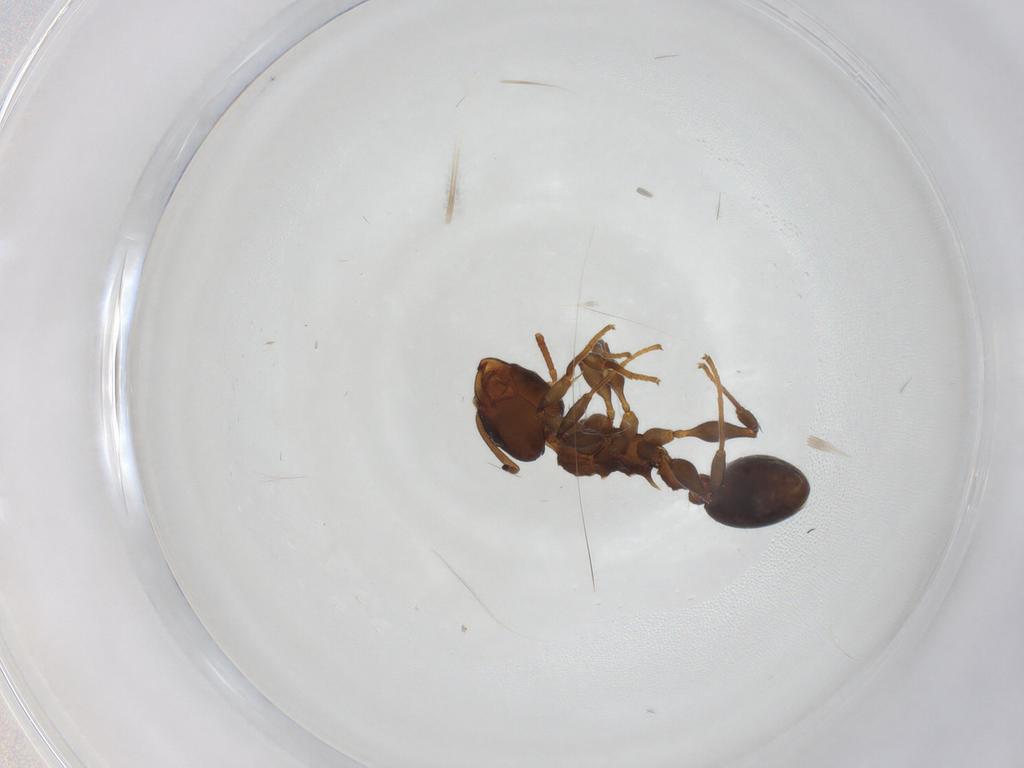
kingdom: Animalia
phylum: Arthropoda
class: Insecta
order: Hymenoptera
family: Formicidae
